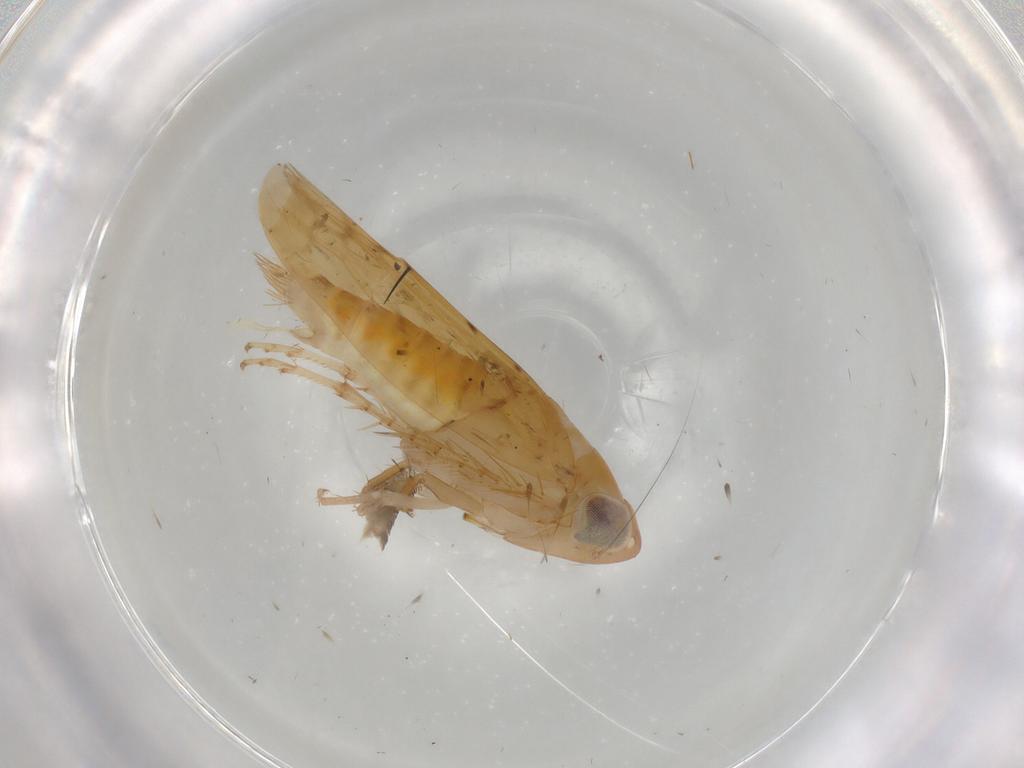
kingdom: Animalia
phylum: Arthropoda
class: Insecta
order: Hemiptera
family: Cicadellidae
